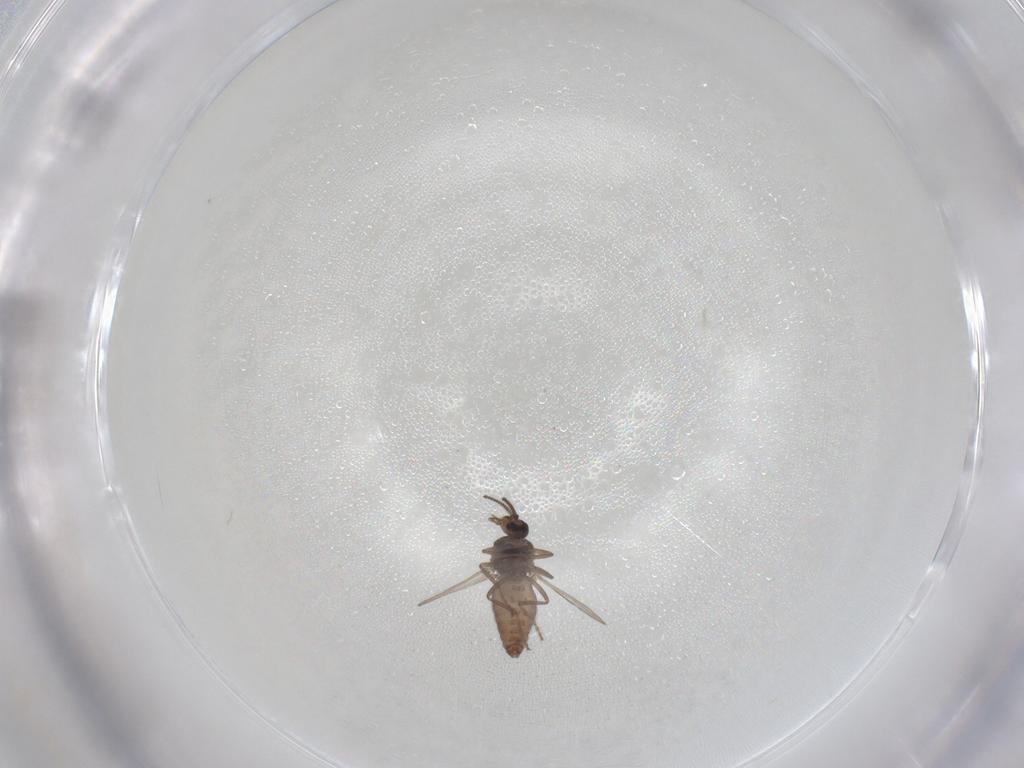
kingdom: Animalia
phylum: Arthropoda
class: Insecta
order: Diptera
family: Ceratopogonidae
